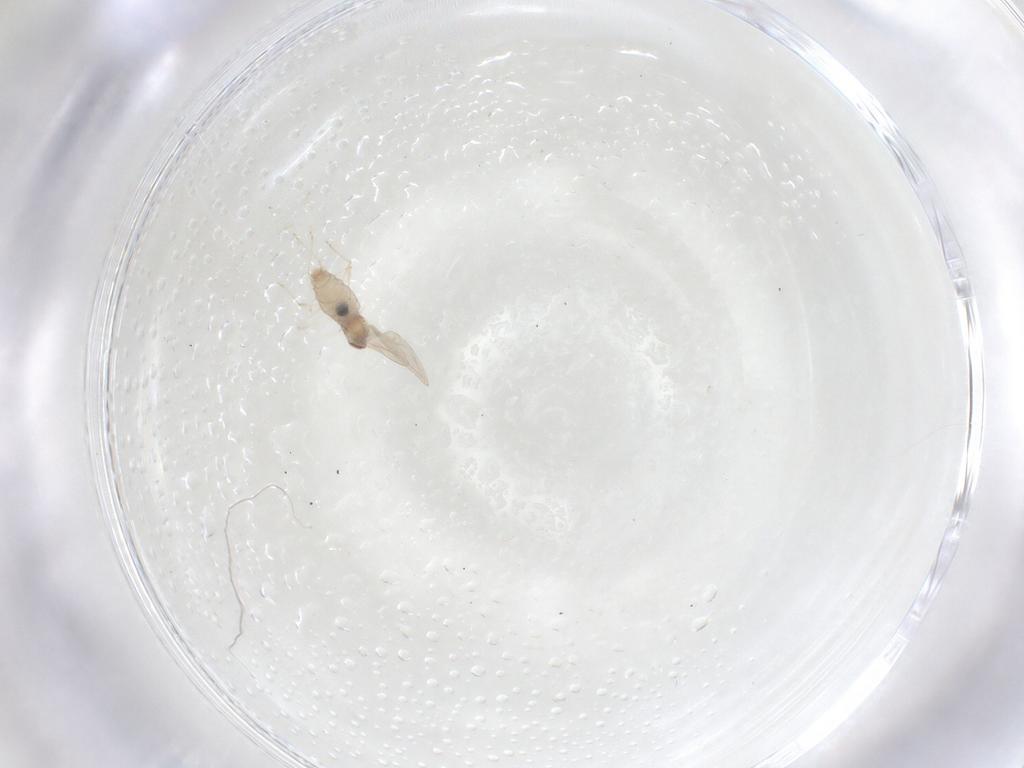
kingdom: Animalia
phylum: Arthropoda
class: Insecta
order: Diptera
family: Cecidomyiidae
